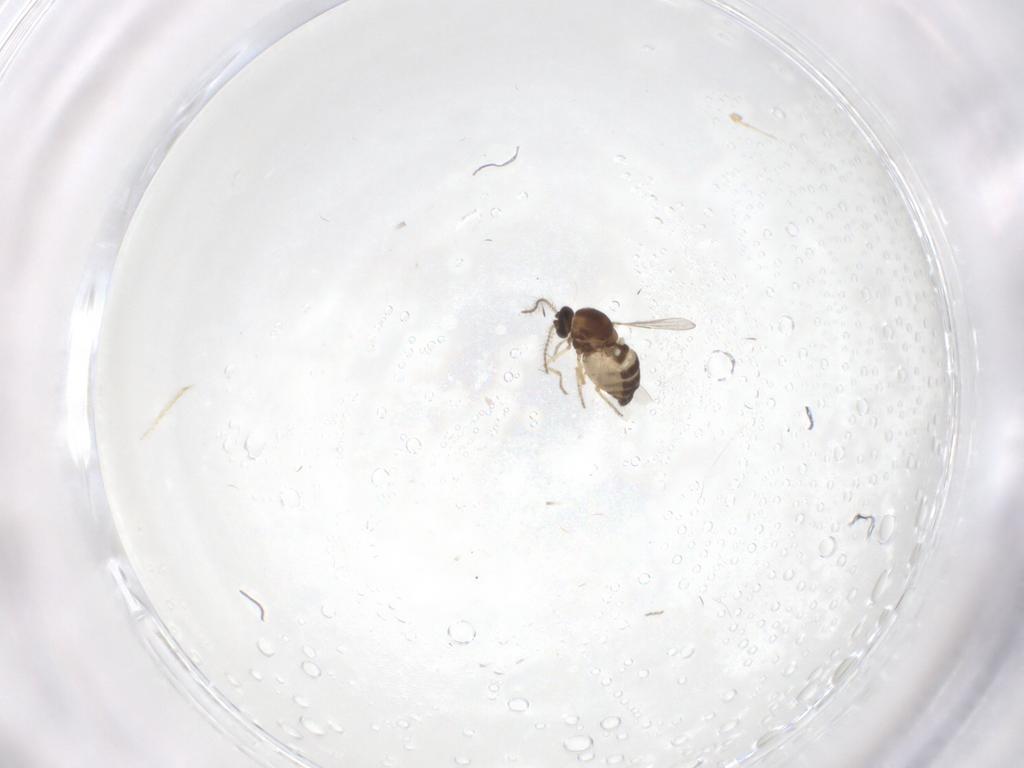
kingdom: Animalia
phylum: Arthropoda
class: Insecta
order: Diptera
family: Ceratopogonidae
